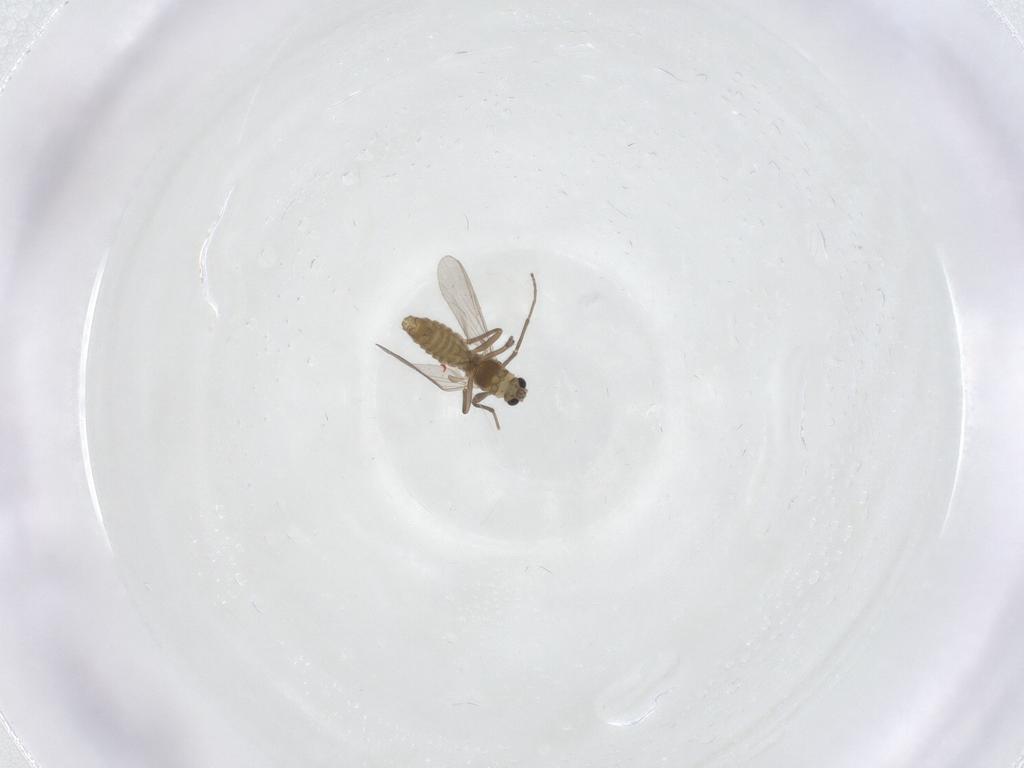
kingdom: Animalia
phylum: Arthropoda
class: Insecta
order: Diptera
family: Chironomidae
